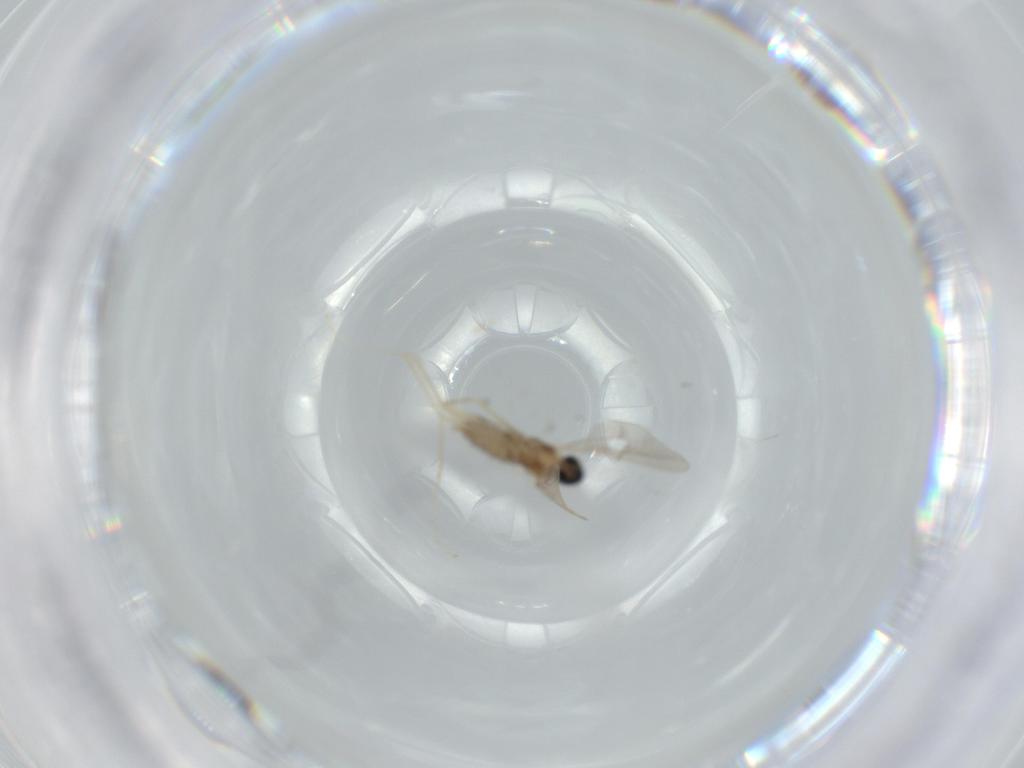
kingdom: Animalia
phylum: Arthropoda
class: Insecta
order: Diptera
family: Cecidomyiidae
